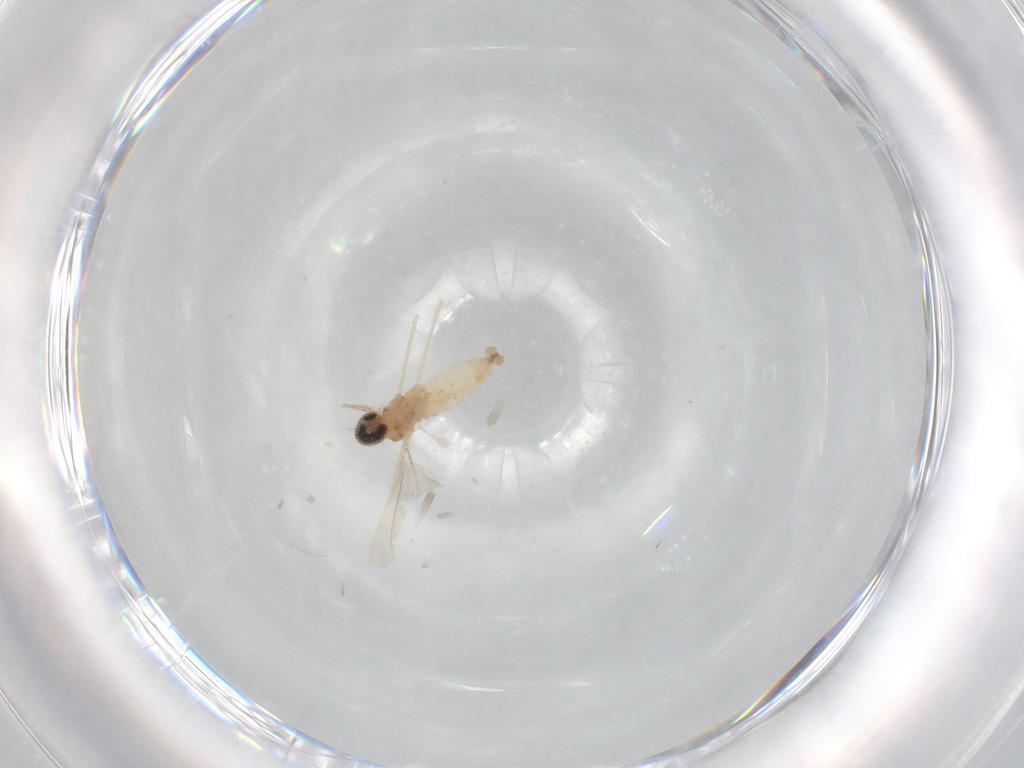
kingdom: Animalia
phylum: Arthropoda
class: Insecta
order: Diptera
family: Cecidomyiidae
